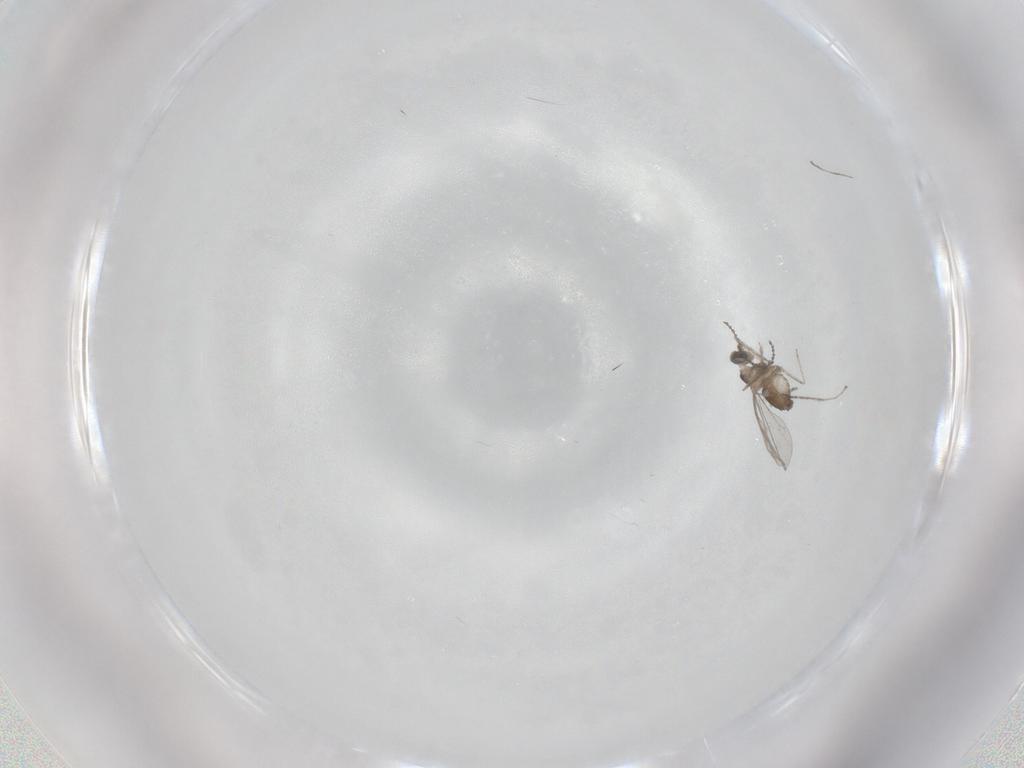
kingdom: Animalia
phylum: Arthropoda
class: Insecta
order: Diptera
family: Cecidomyiidae
